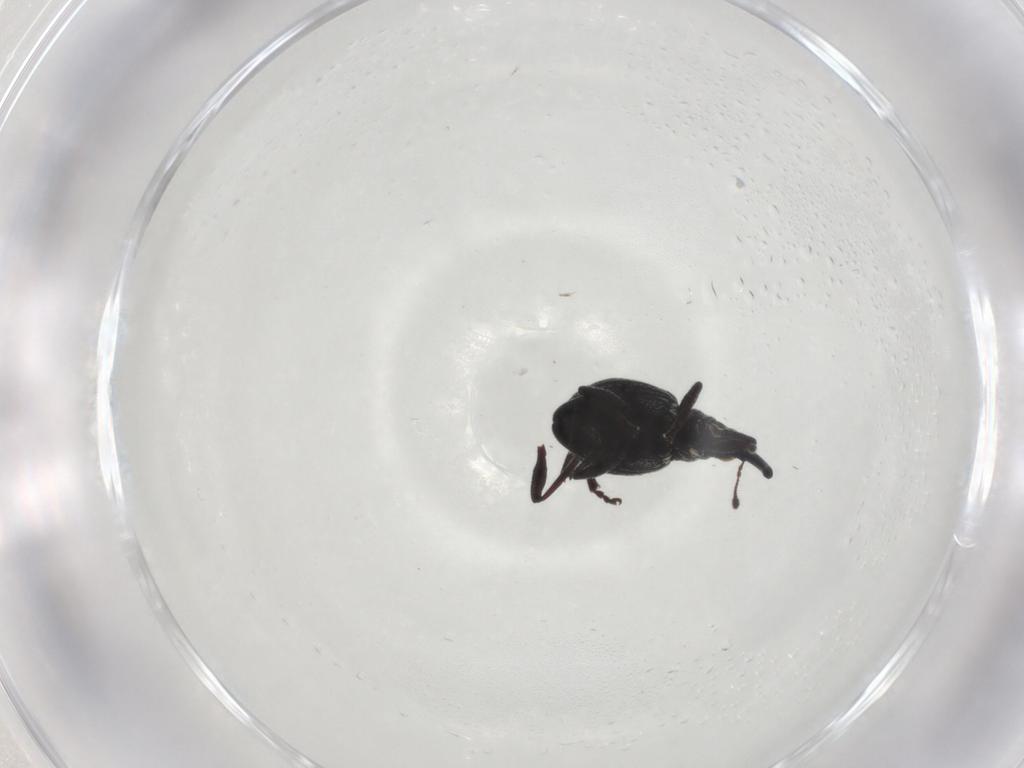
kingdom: Animalia
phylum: Arthropoda
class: Insecta
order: Coleoptera
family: Brentidae
